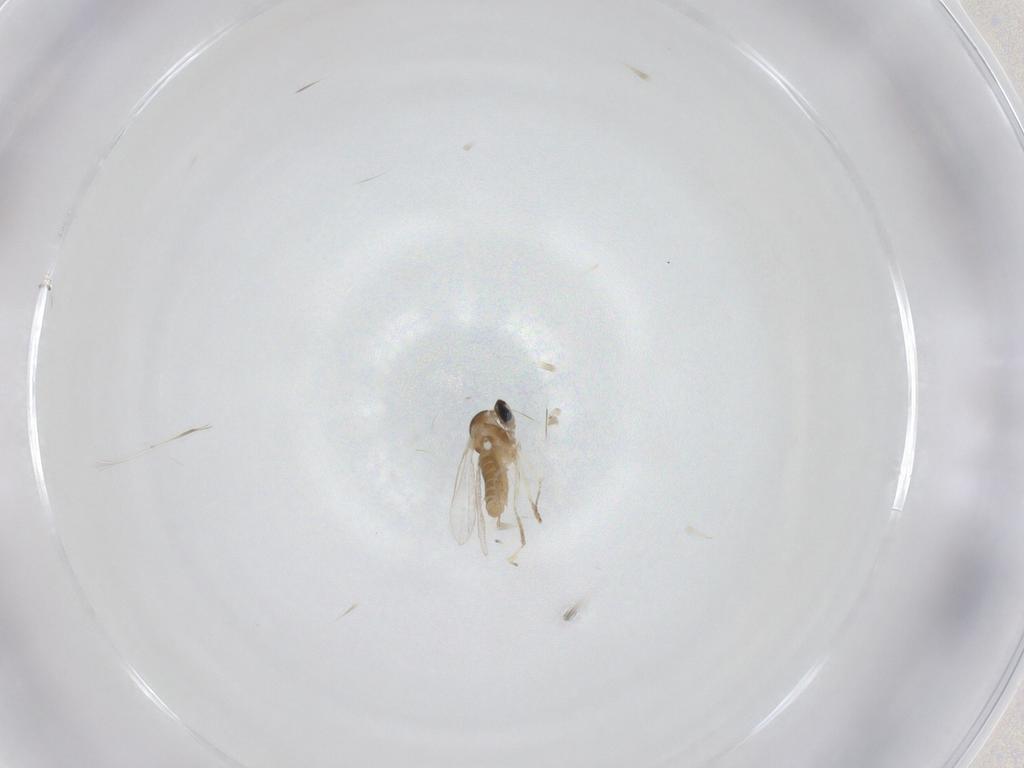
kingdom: Animalia
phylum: Arthropoda
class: Insecta
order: Diptera
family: Cecidomyiidae
